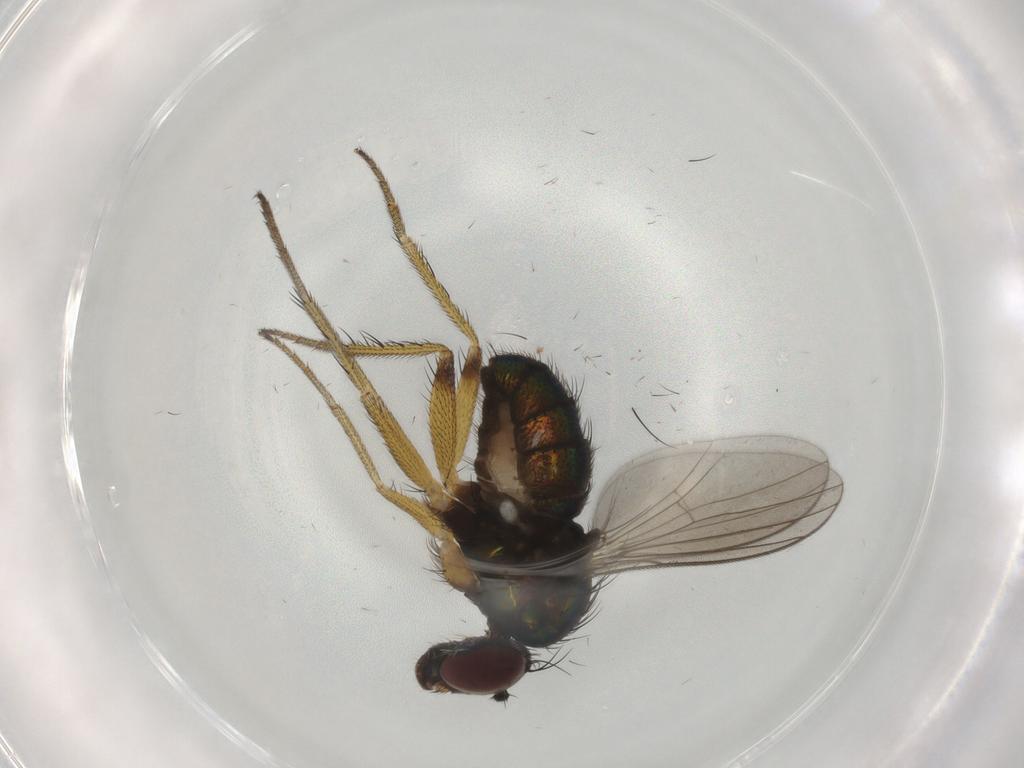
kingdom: Animalia
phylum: Arthropoda
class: Insecta
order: Diptera
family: Dolichopodidae
